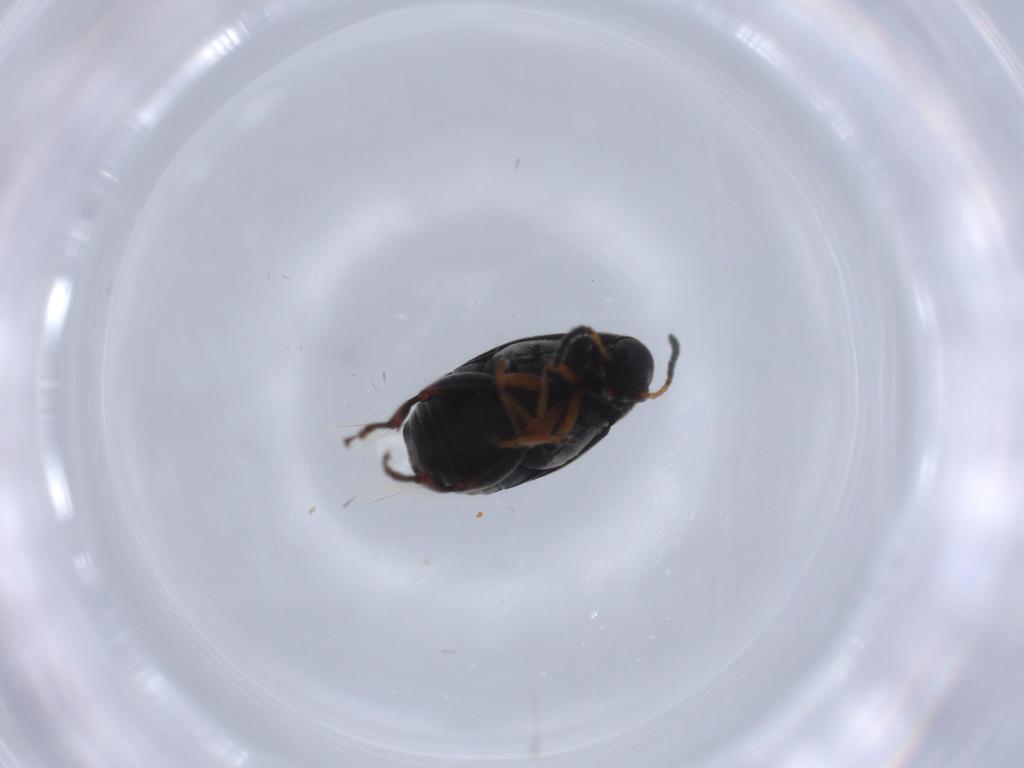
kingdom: Animalia
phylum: Arthropoda
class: Insecta
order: Coleoptera
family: Chrysomelidae
